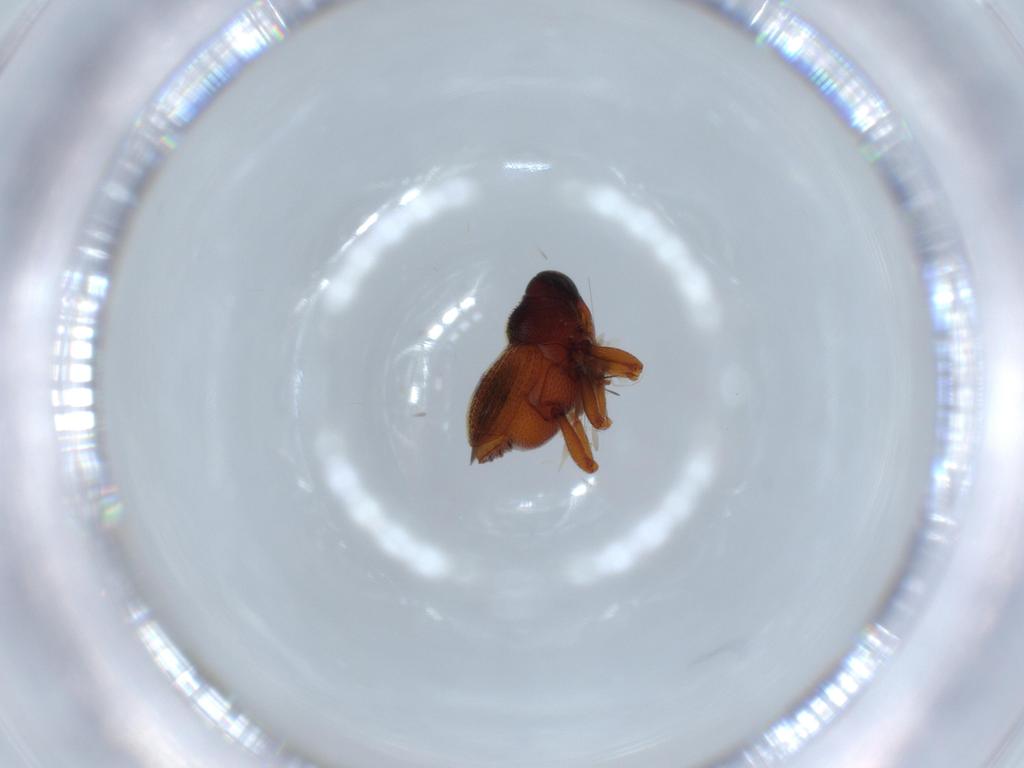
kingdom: Animalia
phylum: Arthropoda
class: Insecta
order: Coleoptera
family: Curculionidae
